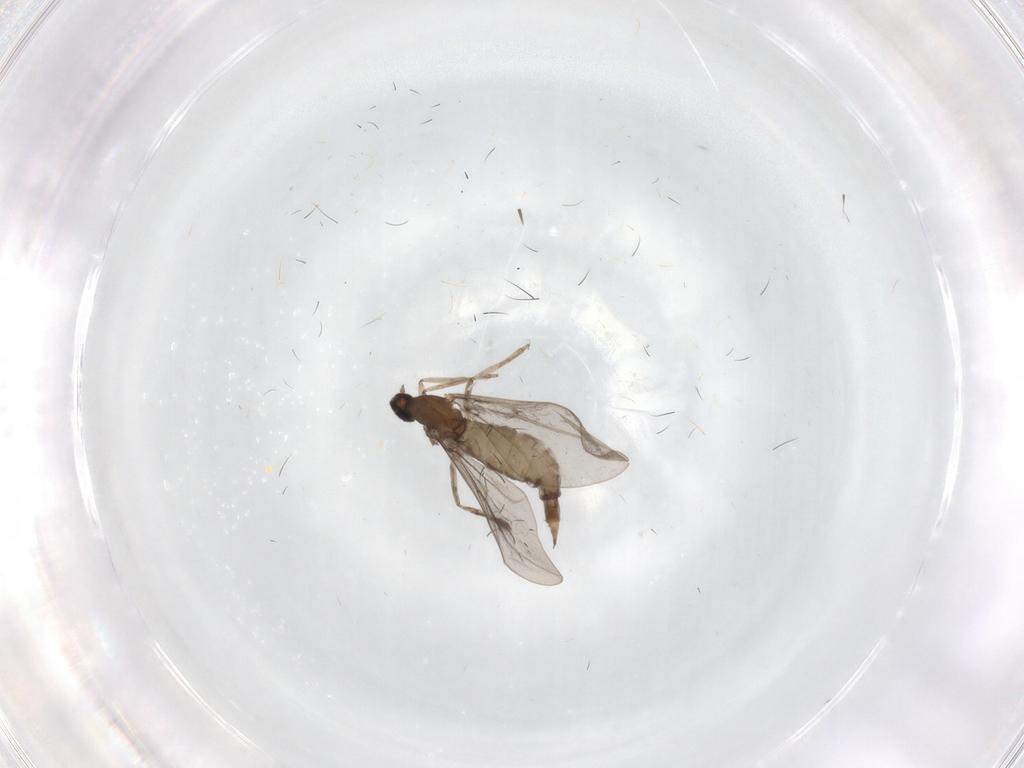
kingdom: Animalia
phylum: Arthropoda
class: Insecta
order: Diptera
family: Cecidomyiidae
